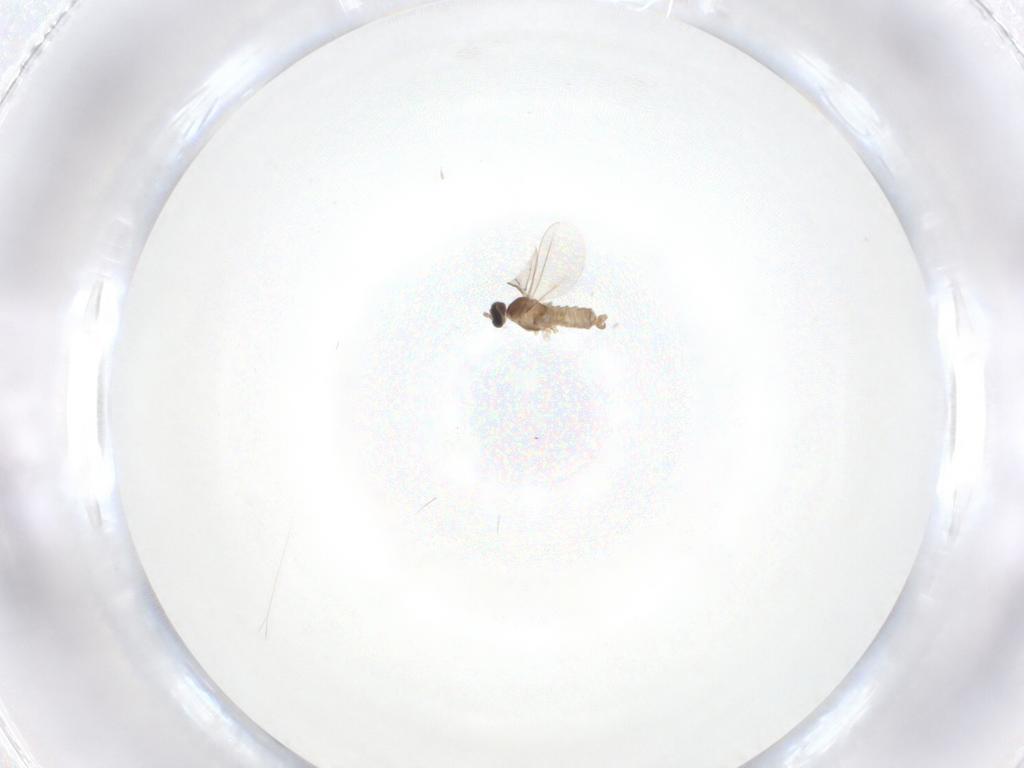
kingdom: Animalia
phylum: Arthropoda
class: Insecta
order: Diptera
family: Cecidomyiidae
